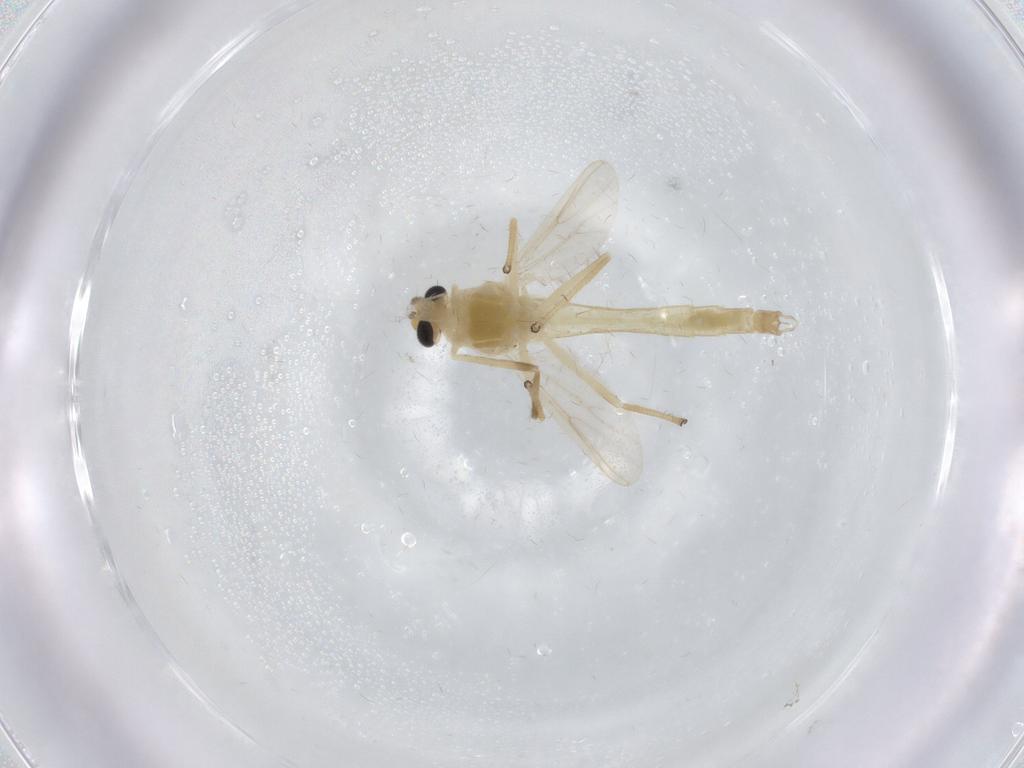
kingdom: Animalia
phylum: Arthropoda
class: Insecta
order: Diptera
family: Chironomidae
